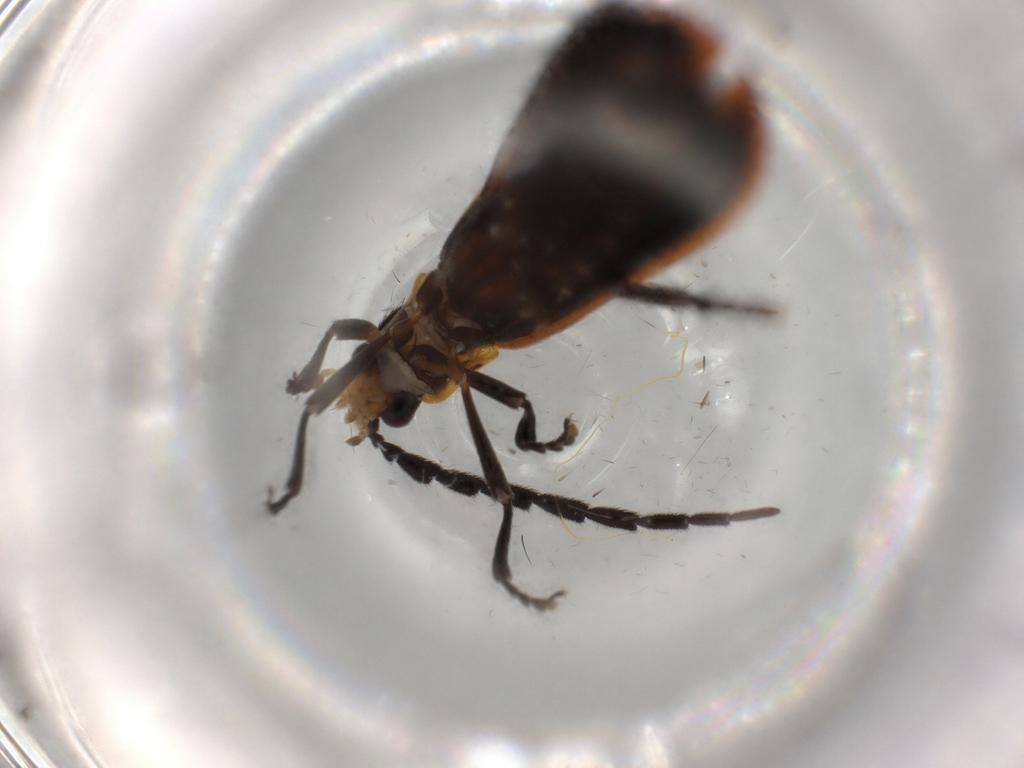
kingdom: Animalia
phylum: Arthropoda
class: Insecta
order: Coleoptera
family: Lycidae
